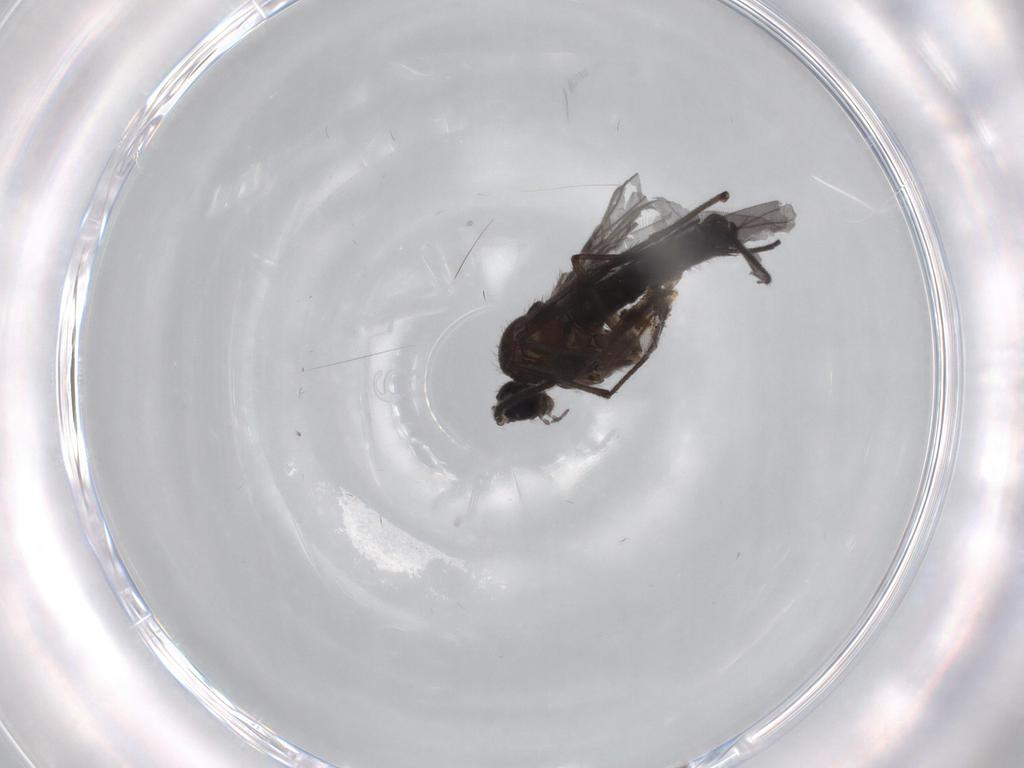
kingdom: Animalia
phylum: Arthropoda
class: Insecta
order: Diptera
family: Sciaridae
